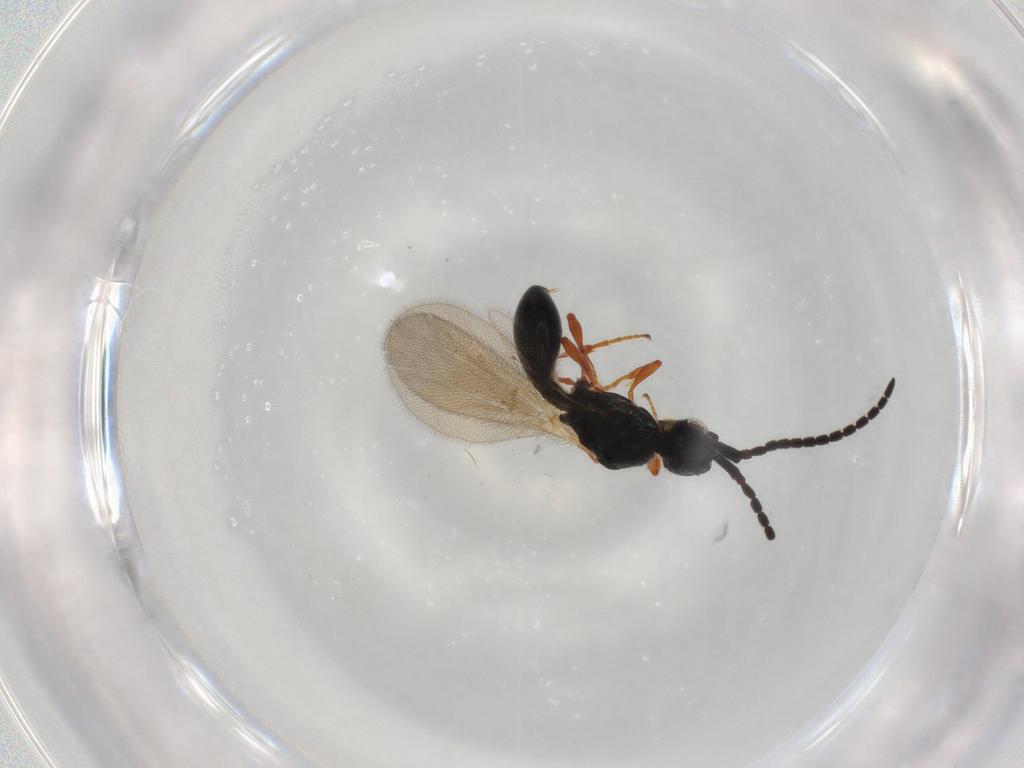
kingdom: Animalia
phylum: Arthropoda
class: Insecta
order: Hymenoptera
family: Diapriidae
